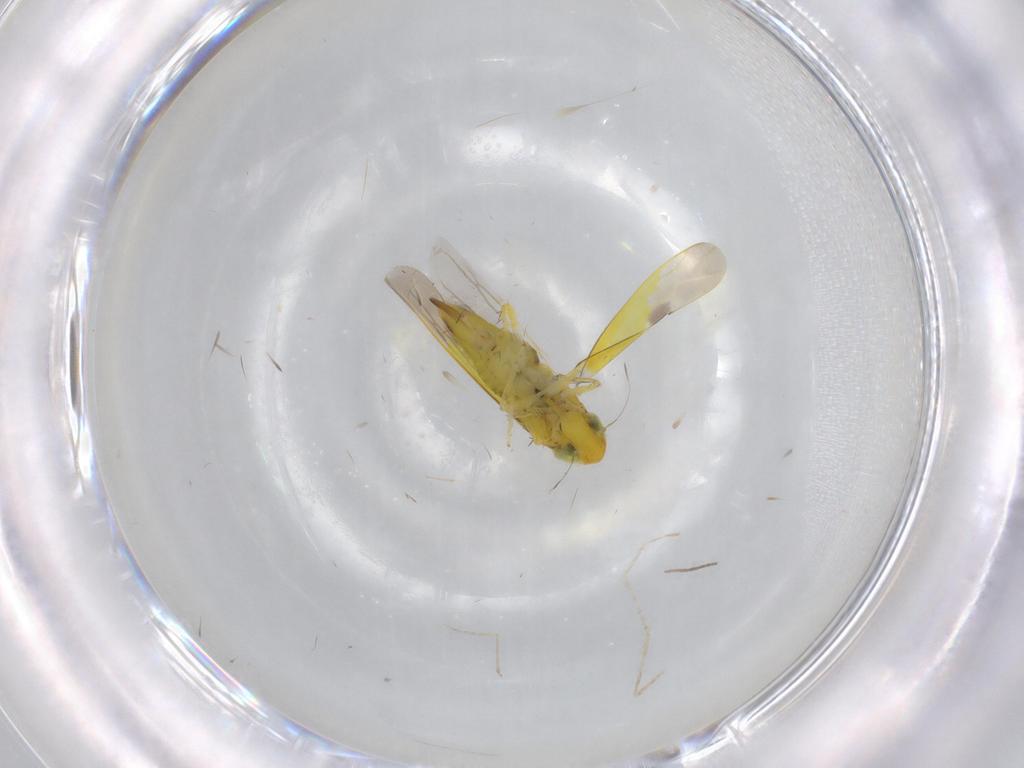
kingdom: Animalia
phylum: Arthropoda
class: Insecta
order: Hemiptera
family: Cicadellidae
